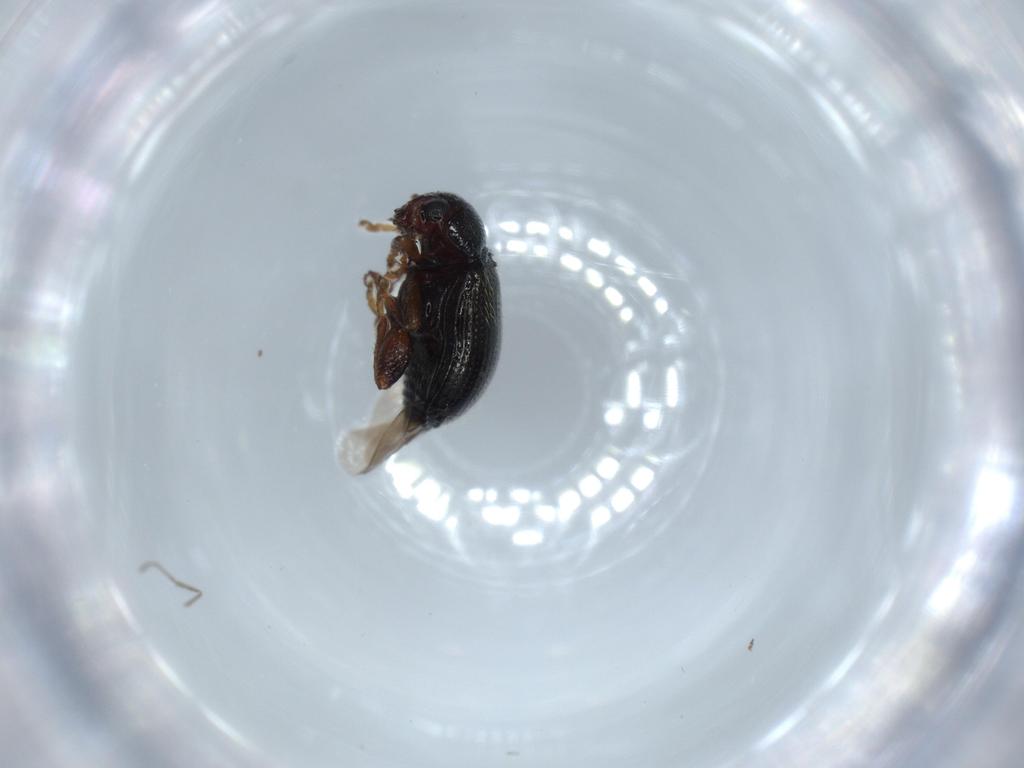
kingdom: Animalia
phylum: Arthropoda
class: Insecta
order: Coleoptera
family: Chrysomelidae
